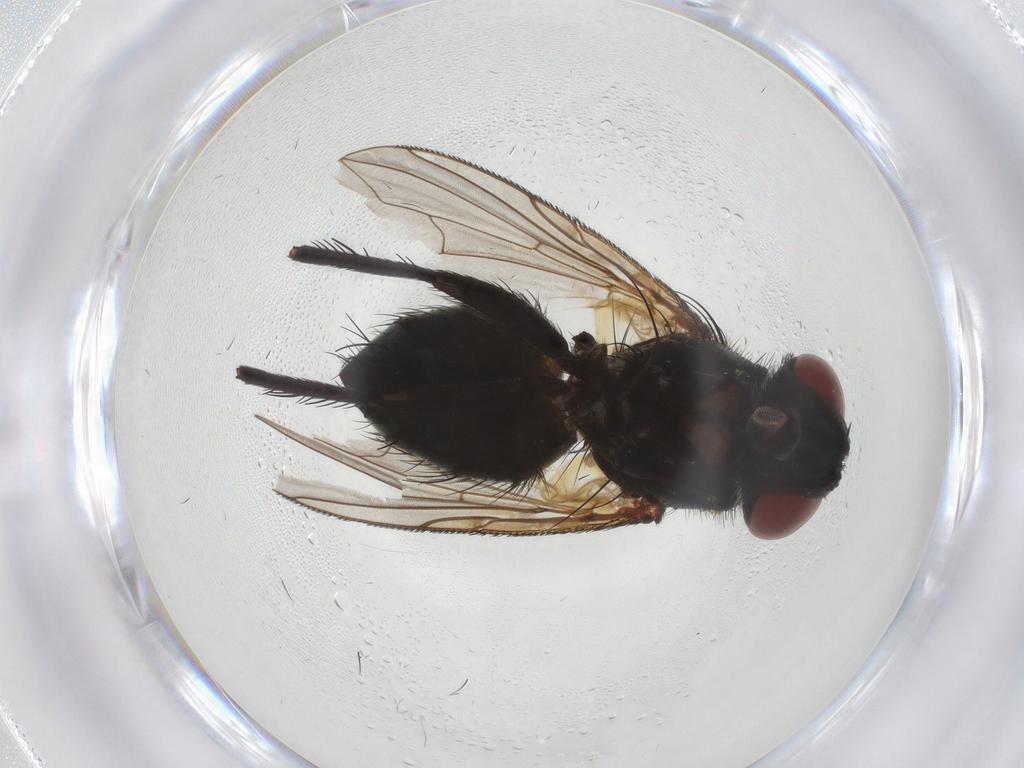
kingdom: Animalia
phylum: Arthropoda
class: Insecta
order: Diptera
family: Tachinidae
